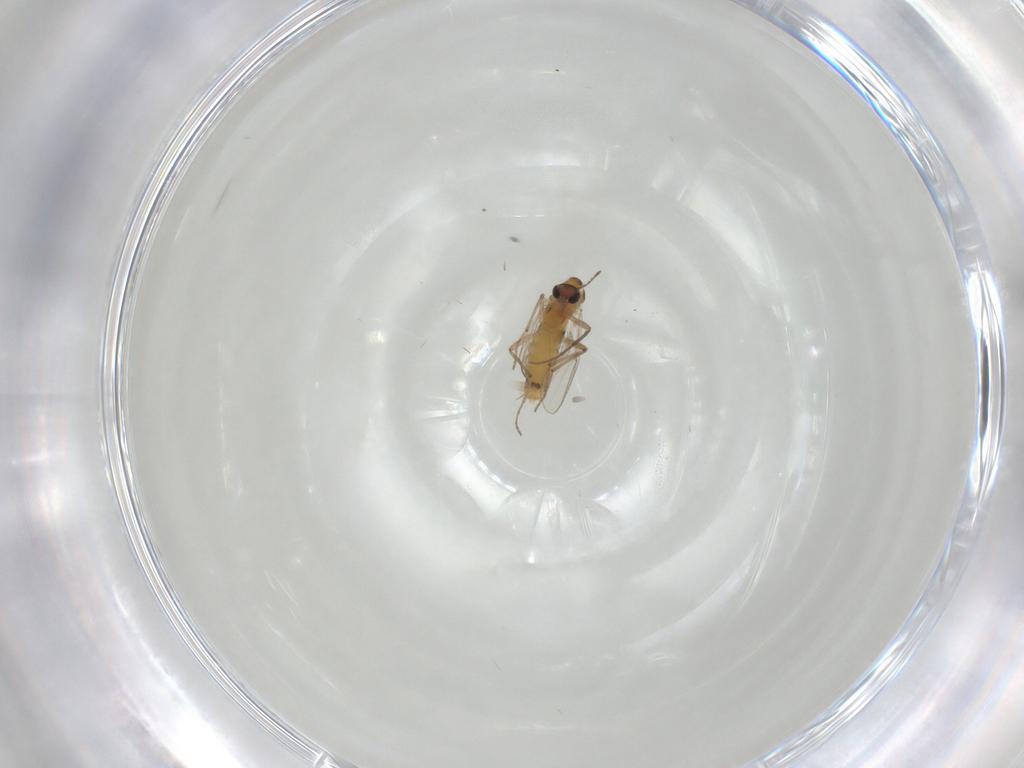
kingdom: Animalia
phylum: Arthropoda
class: Insecta
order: Diptera
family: Chironomidae
